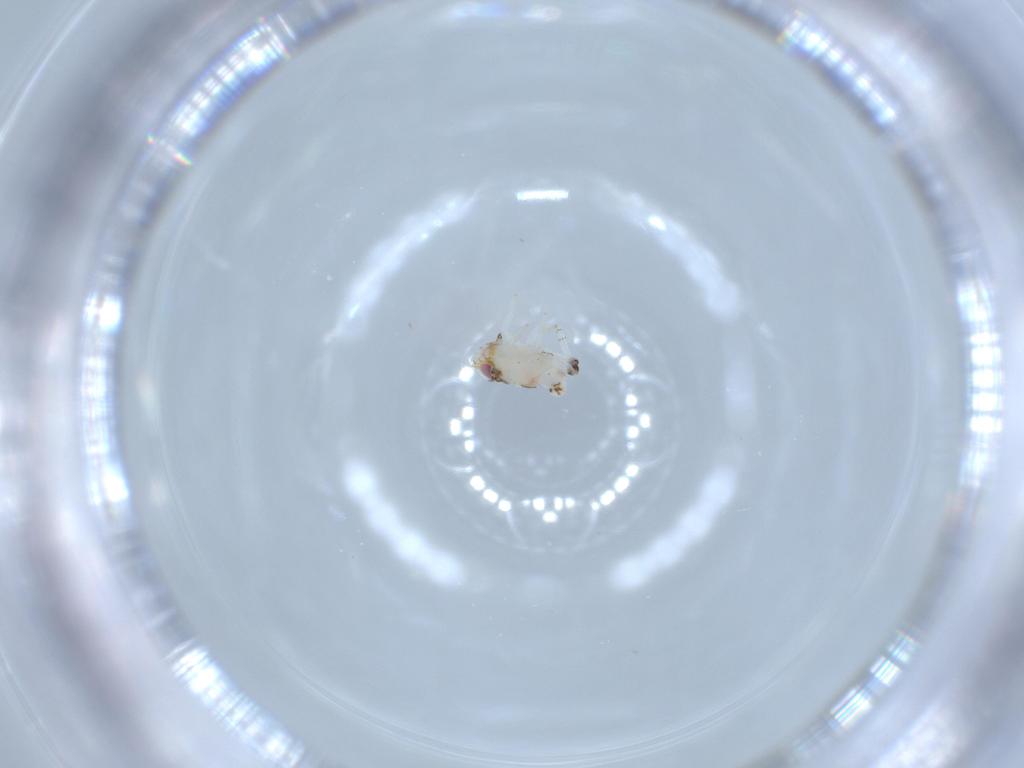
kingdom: Animalia
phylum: Arthropoda
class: Insecta
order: Hemiptera
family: Nogodinidae
